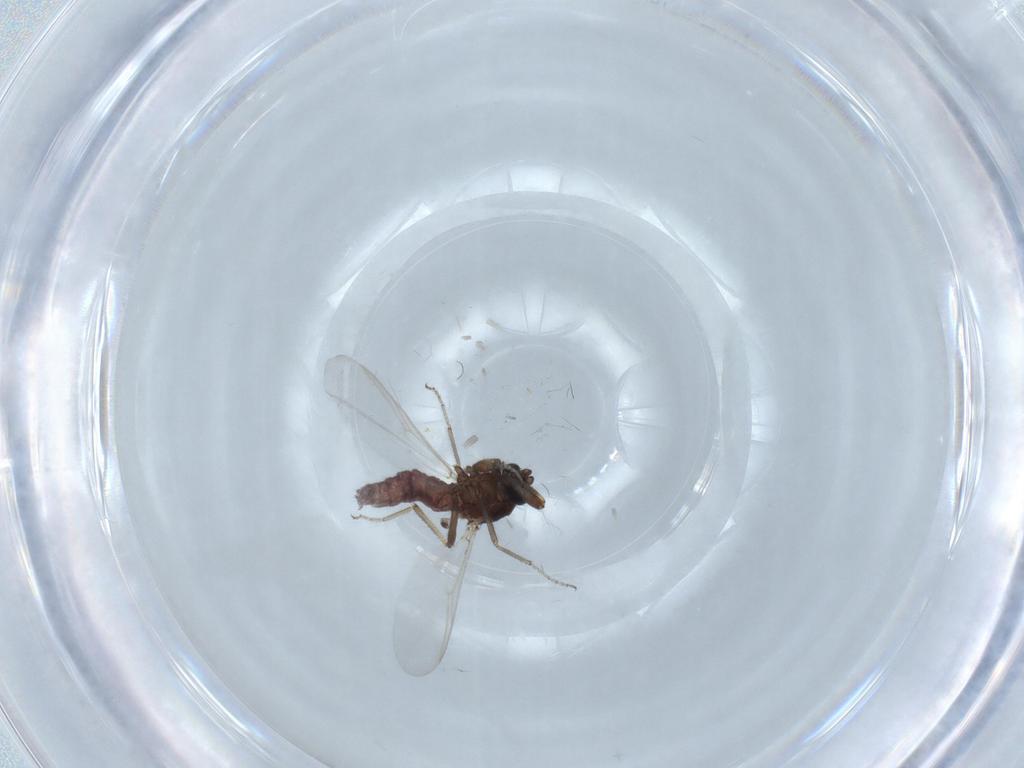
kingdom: Animalia
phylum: Arthropoda
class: Insecta
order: Diptera
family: Ceratopogonidae
